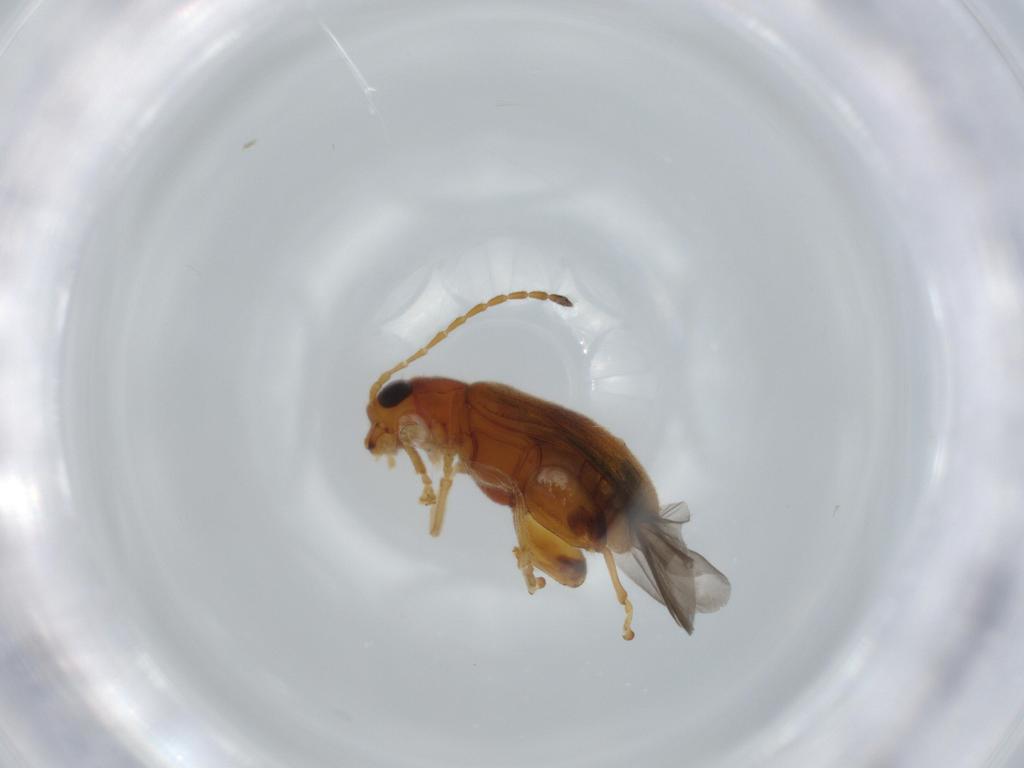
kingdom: Animalia
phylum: Arthropoda
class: Insecta
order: Coleoptera
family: Chrysomelidae
